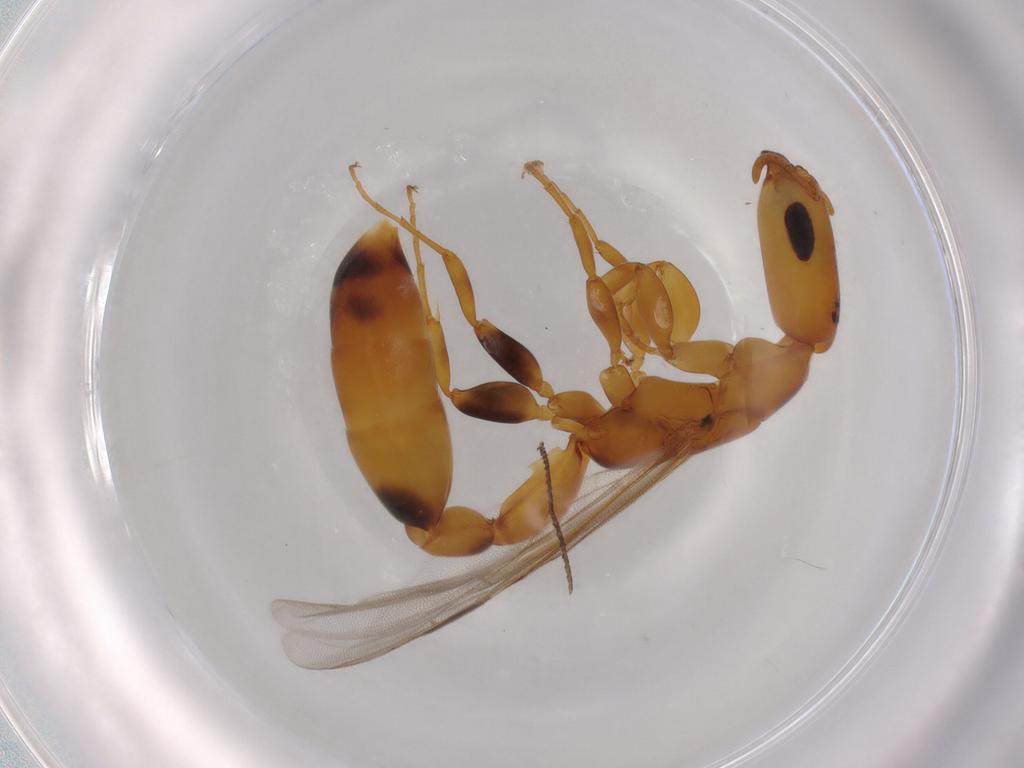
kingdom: Animalia
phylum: Arthropoda
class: Insecta
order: Hymenoptera
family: Formicidae
